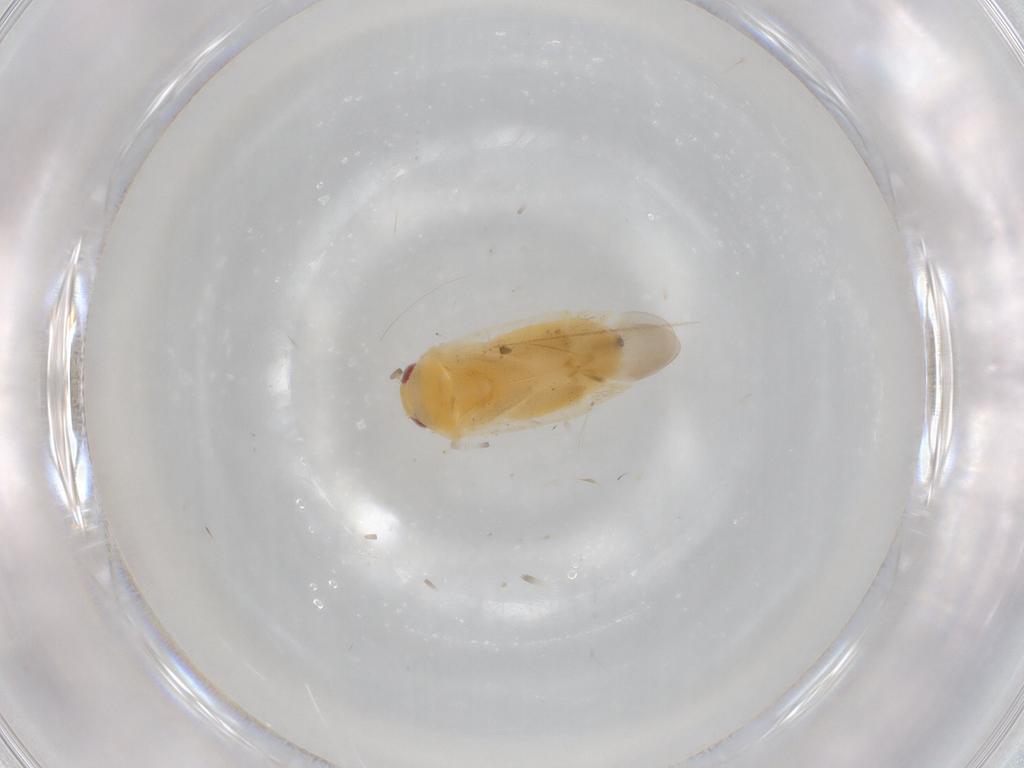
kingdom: Animalia
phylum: Arthropoda
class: Insecta
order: Hemiptera
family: Miridae
